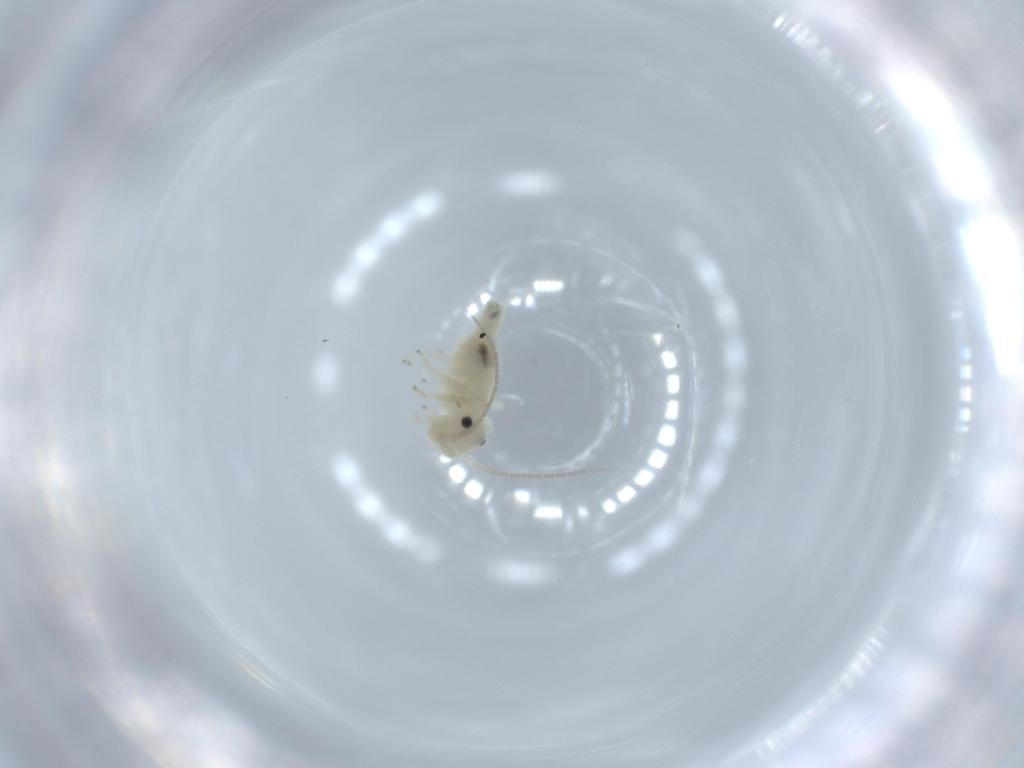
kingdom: Animalia
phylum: Arthropoda
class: Insecta
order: Psocodea
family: Caeciliusidae
